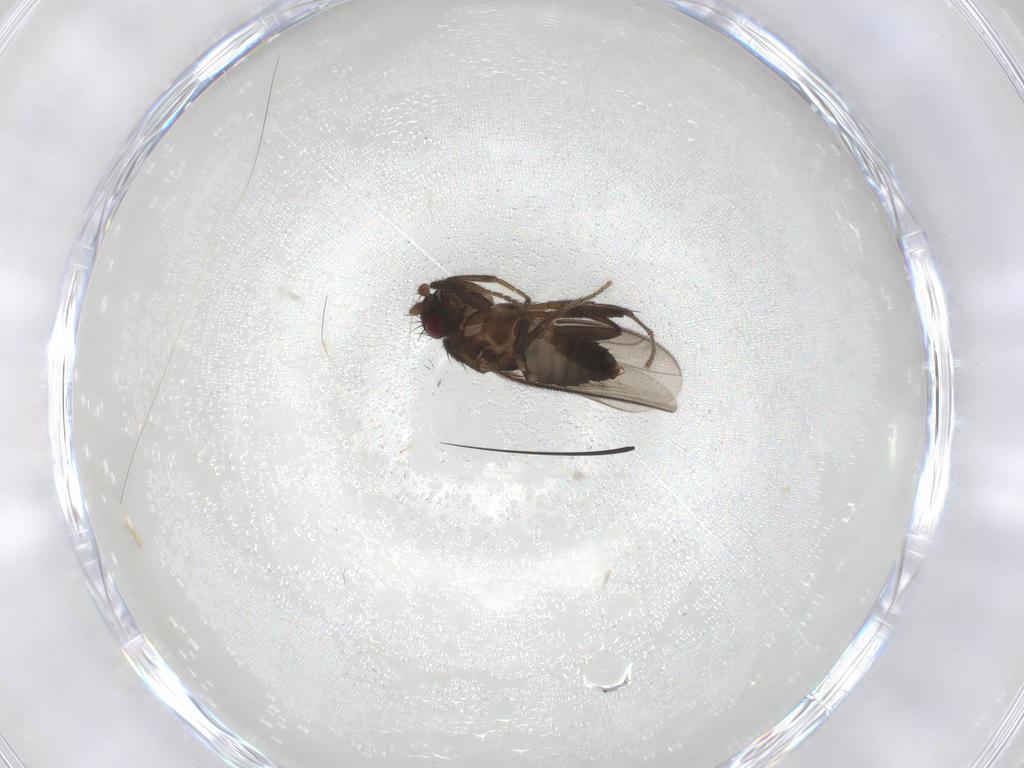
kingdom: Animalia
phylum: Arthropoda
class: Insecta
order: Diptera
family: Sphaeroceridae
